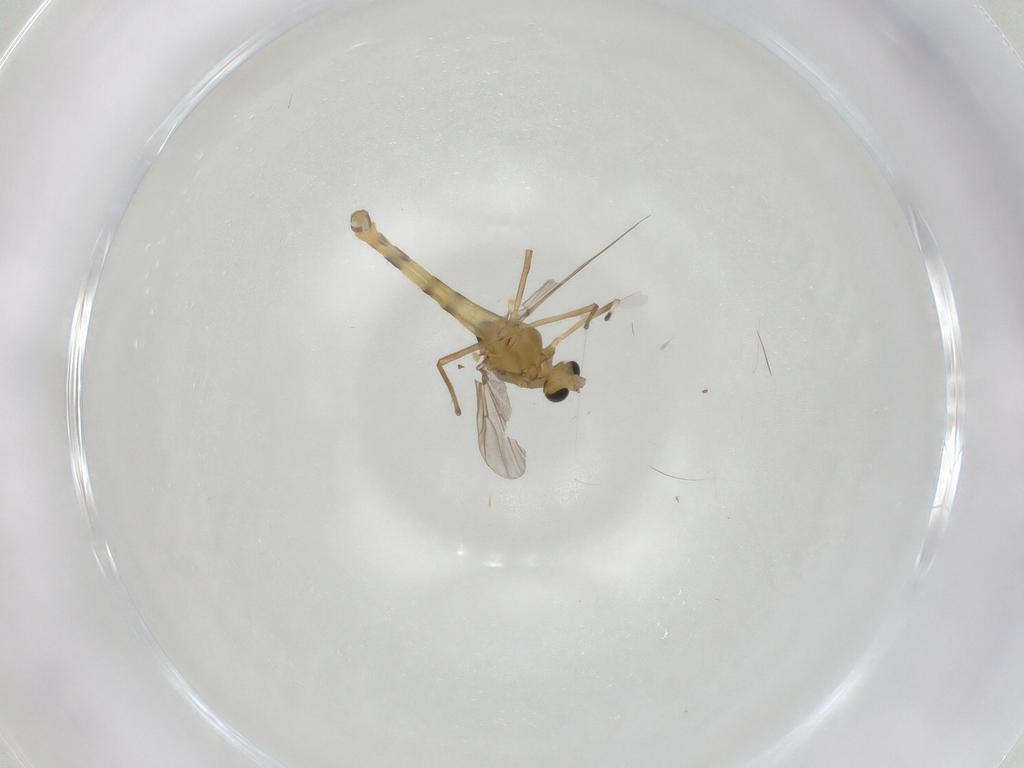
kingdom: Animalia
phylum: Arthropoda
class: Insecta
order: Diptera
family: Chironomidae
